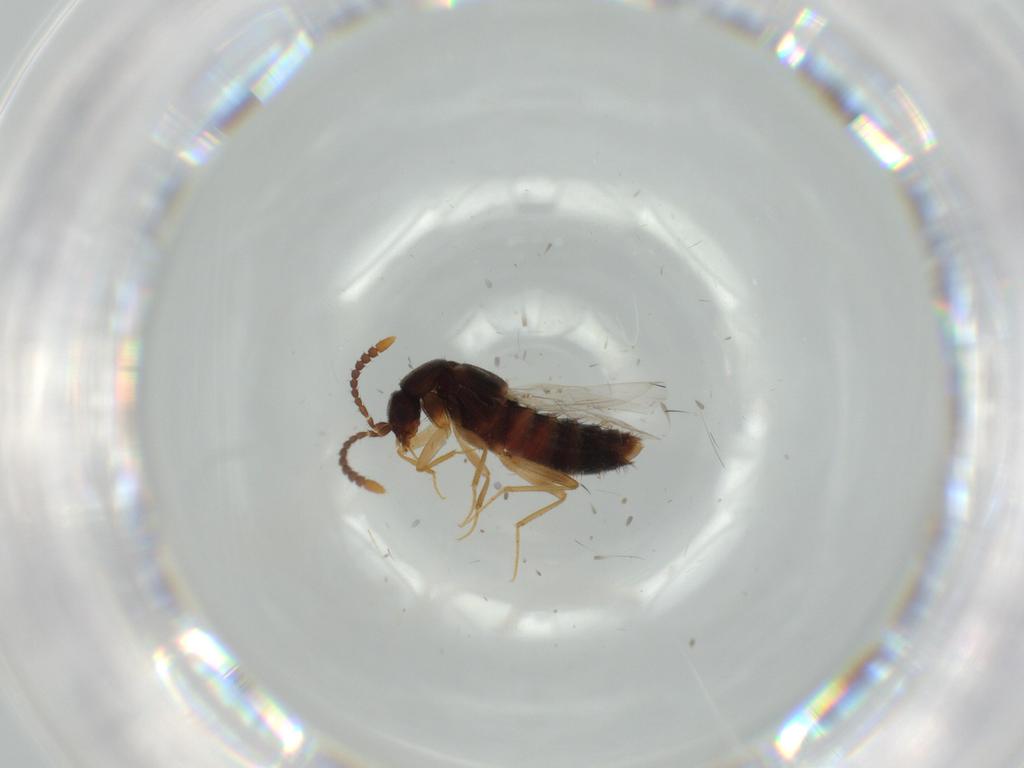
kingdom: Animalia
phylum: Arthropoda
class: Insecta
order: Coleoptera
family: Staphylinidae
